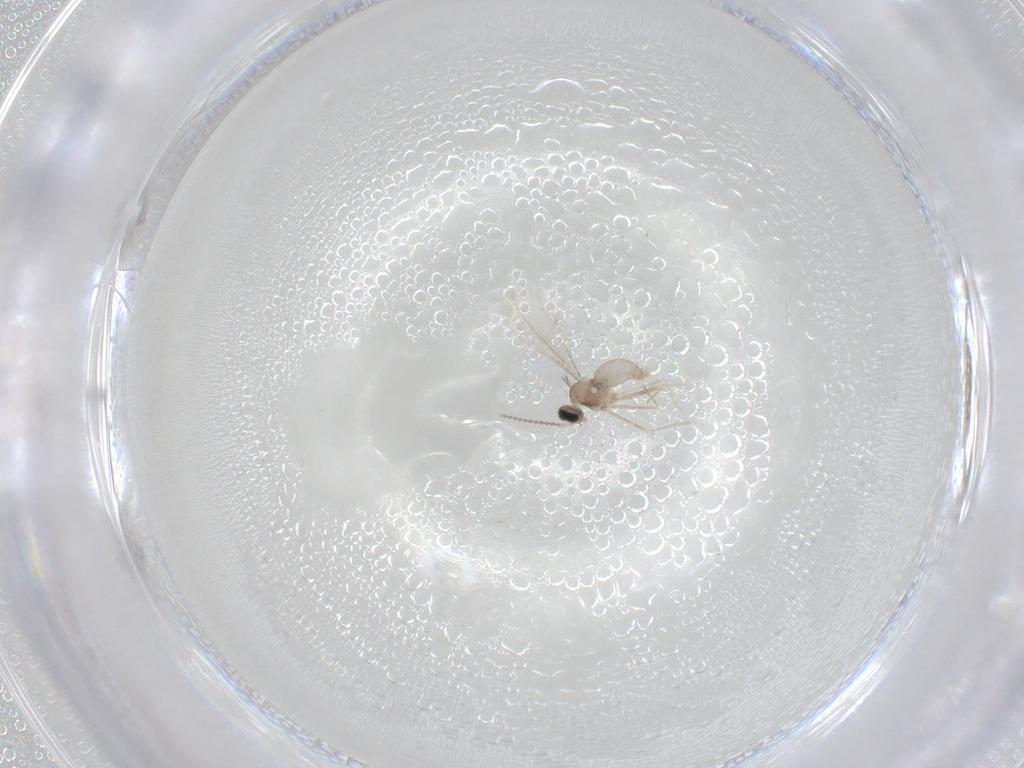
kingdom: Animalia
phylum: Arthropoda
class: Insecta
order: Diptera
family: Cecidomyiidae
